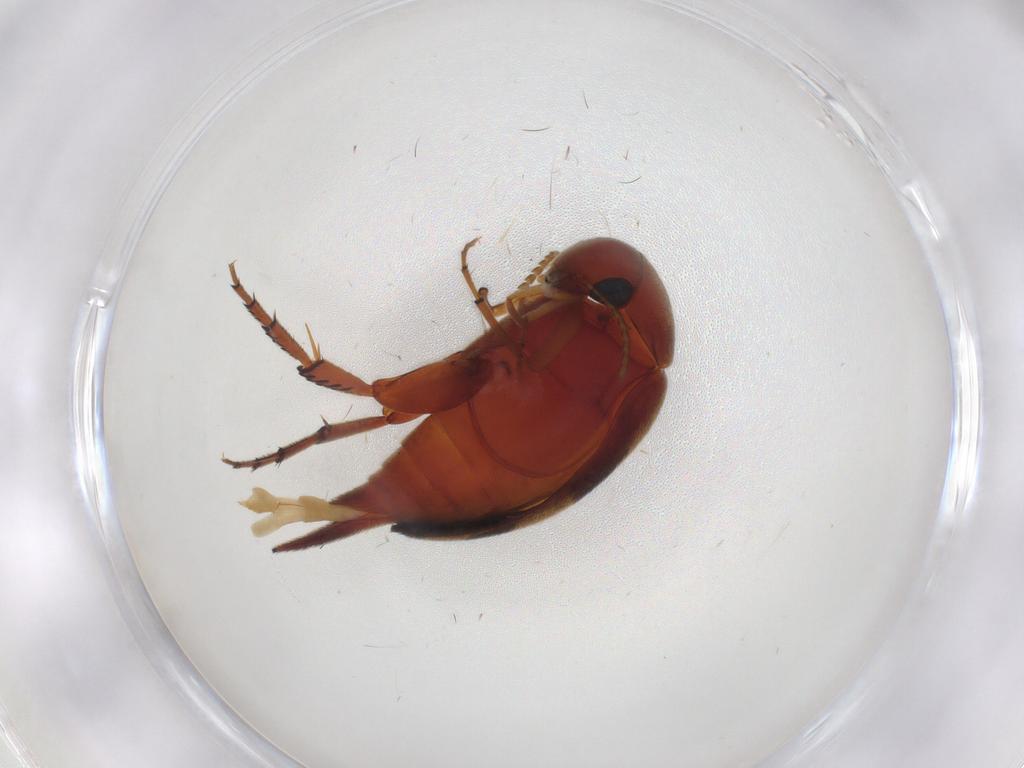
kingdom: Animalia
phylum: Arthropoda
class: Insecta
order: Coleoptera
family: Mordellidae
